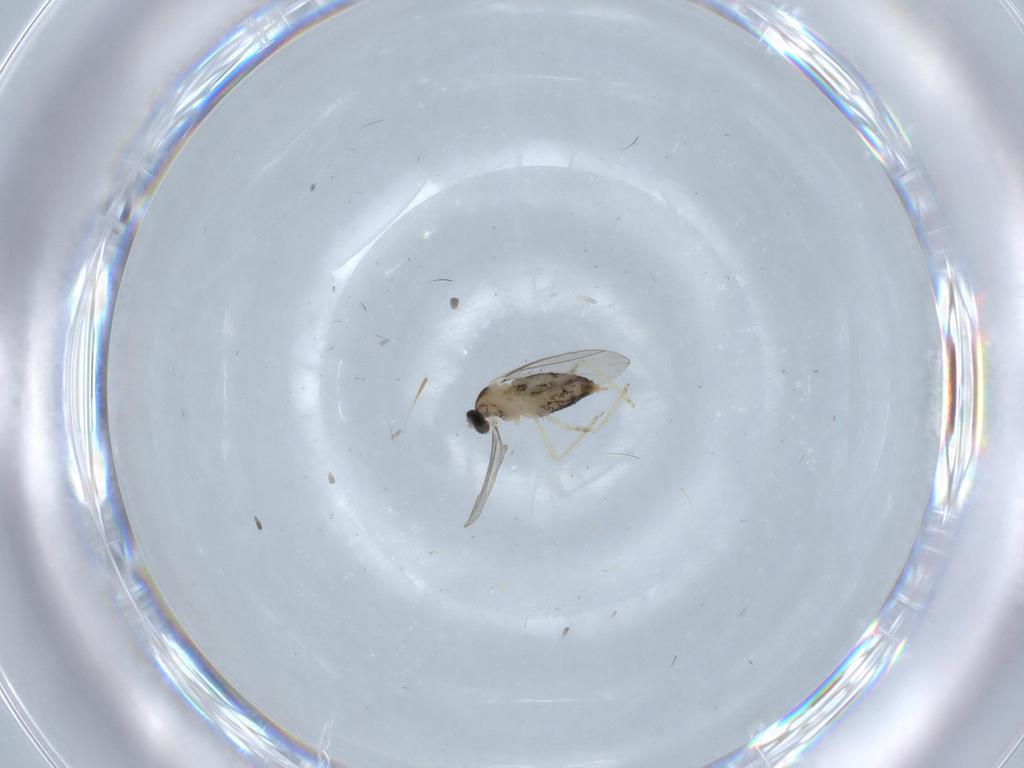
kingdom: Animalia
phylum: Arthropoda
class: Insecta
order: Diptera
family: Cecidomyiidae
